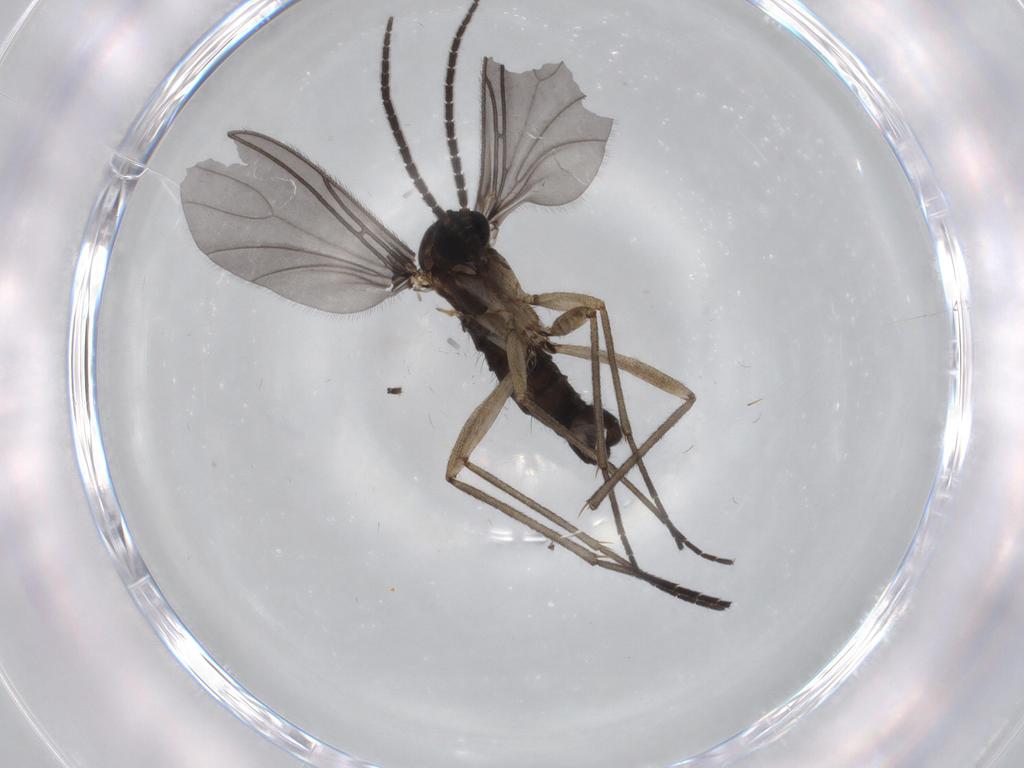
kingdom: Animalia
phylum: Arthropoda
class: Insecta
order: Diptera
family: Sciaridae
